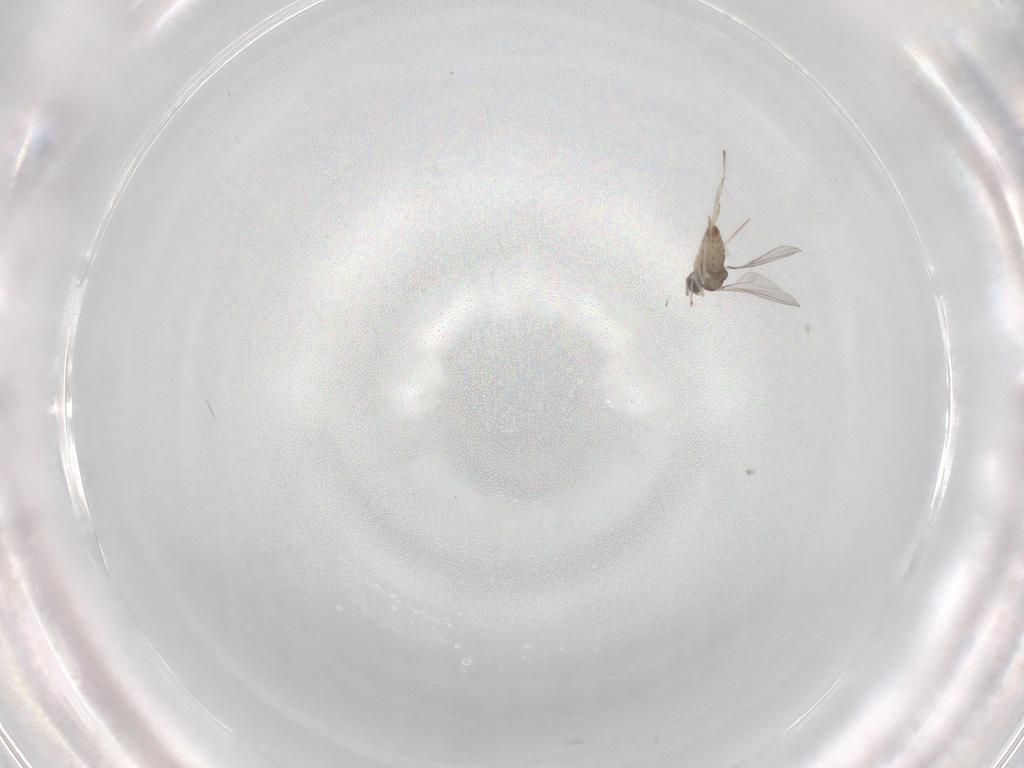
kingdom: Animalia
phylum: Arthropoda
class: Insecta
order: Diptera
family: Cecidomyiidae
